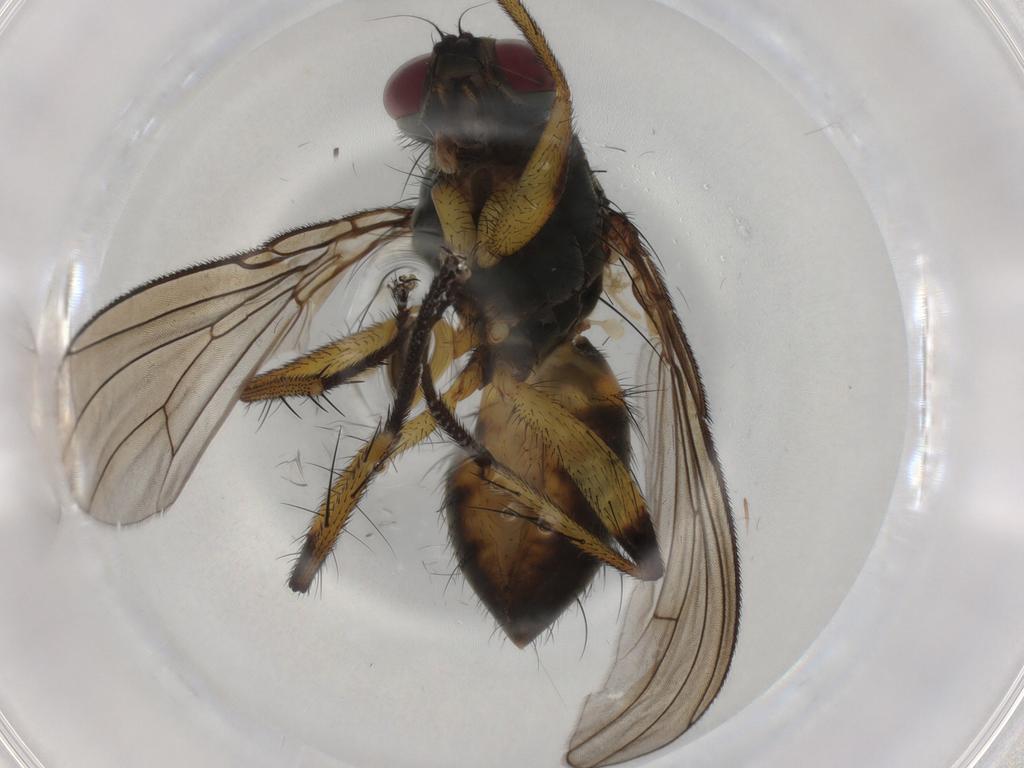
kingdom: Animalia
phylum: Arthropoda
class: Insecta
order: Diptera
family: Muscidae
